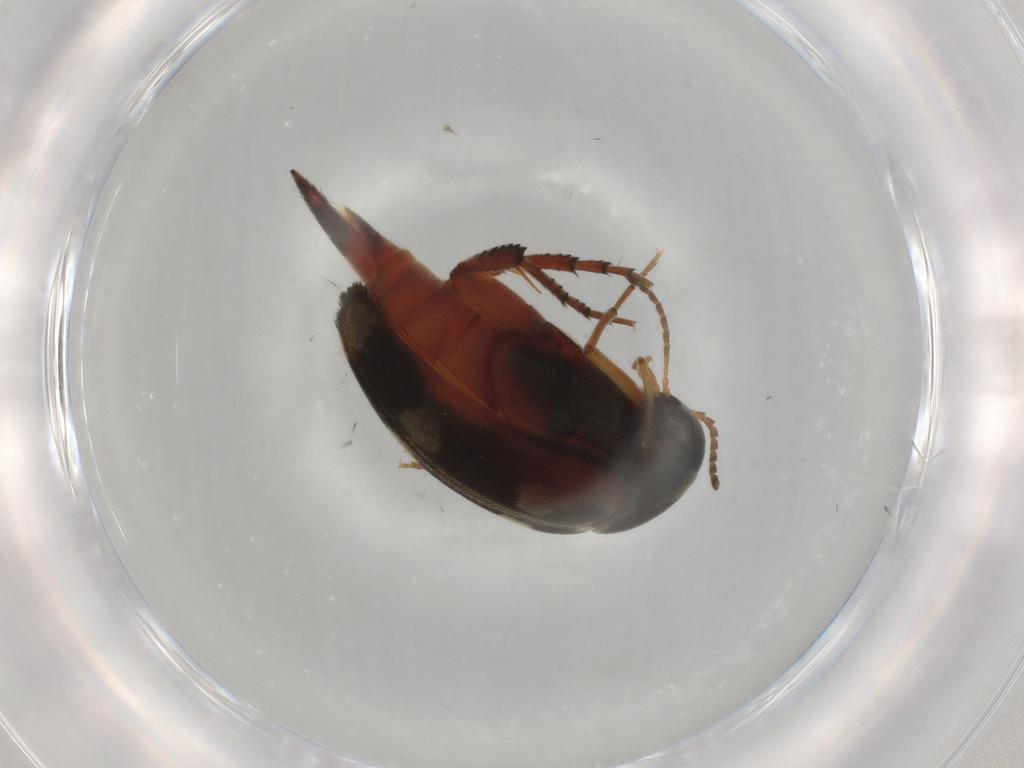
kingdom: Animalia
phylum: Arthropoda
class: Insecta
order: Coleoptera
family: Mordellidae
